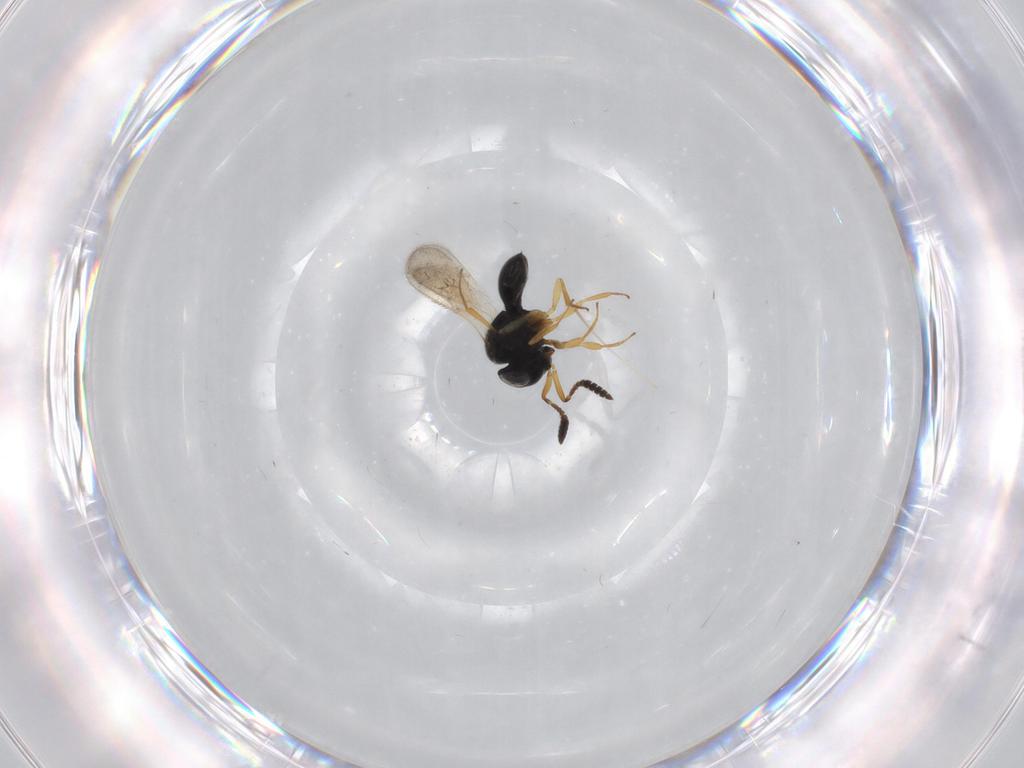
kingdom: Animalia
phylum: Arthropoda
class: Insecta
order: Hymenoptera
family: Scelionidae
